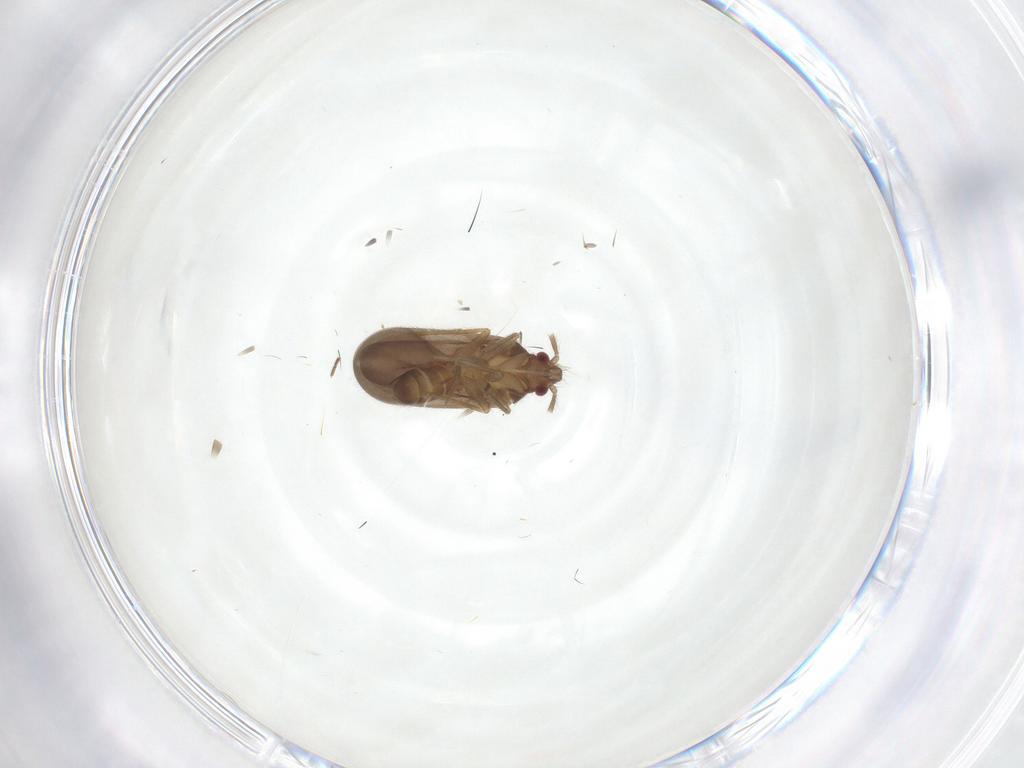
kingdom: Animalia
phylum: Arthropoda
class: Insecta
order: Hemiptera
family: Ceratocombidae
